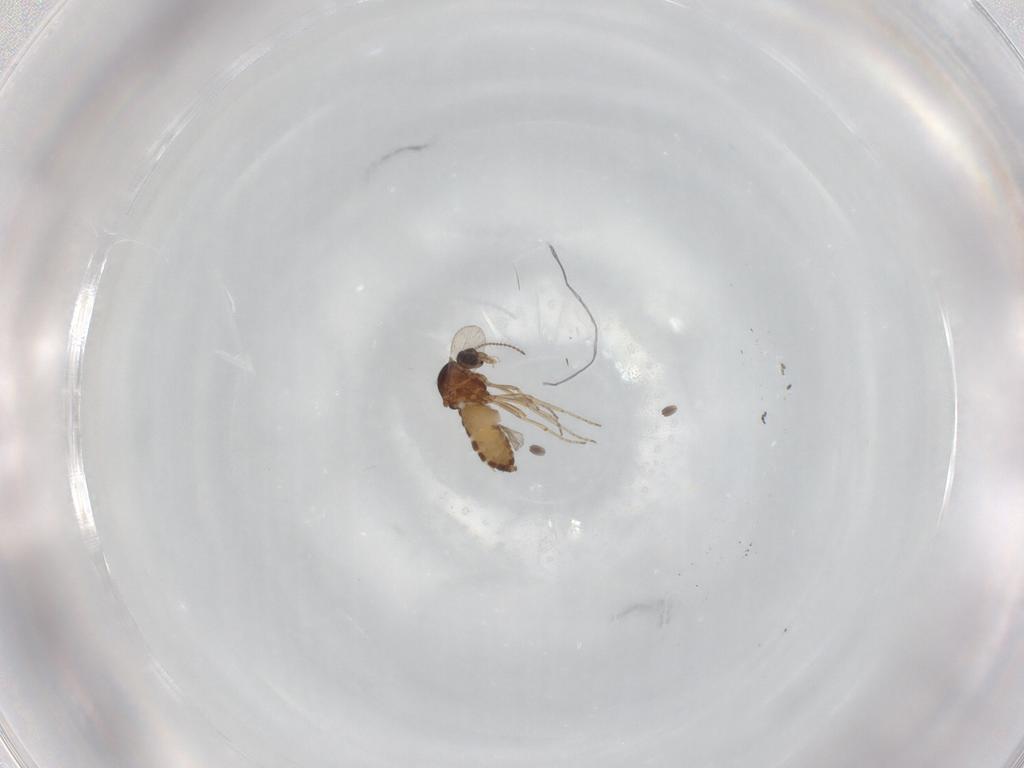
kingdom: Animalia
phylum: Arthropoda
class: Insecta
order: Diptera
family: Ceratopogonidae
